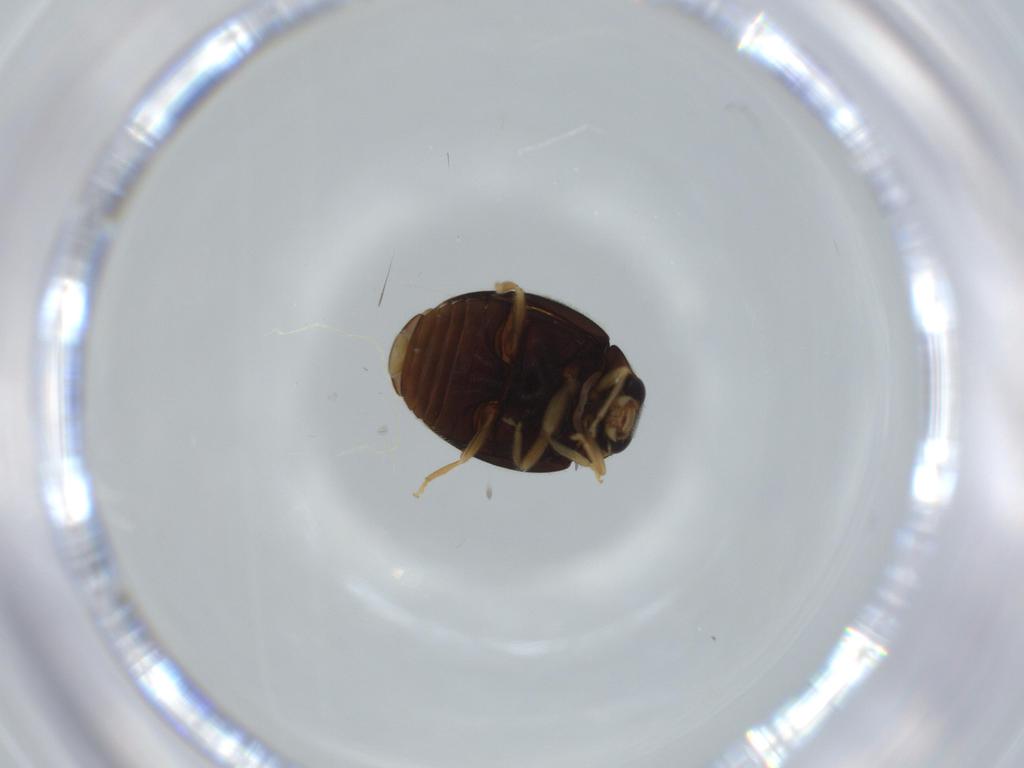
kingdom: Animalia
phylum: Arthropoda
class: Insecta
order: Coleoptera
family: Coccinellidae
